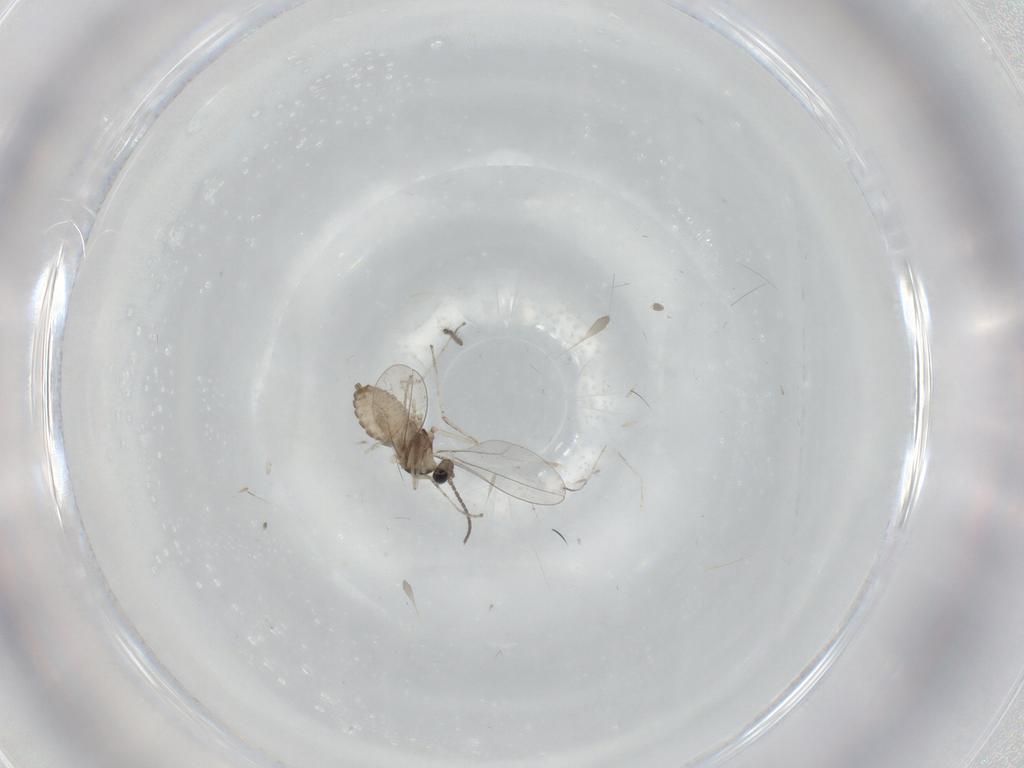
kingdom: Animalia
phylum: Arthropoda
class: Insecta
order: Diptera
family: Cecidomyiidae
